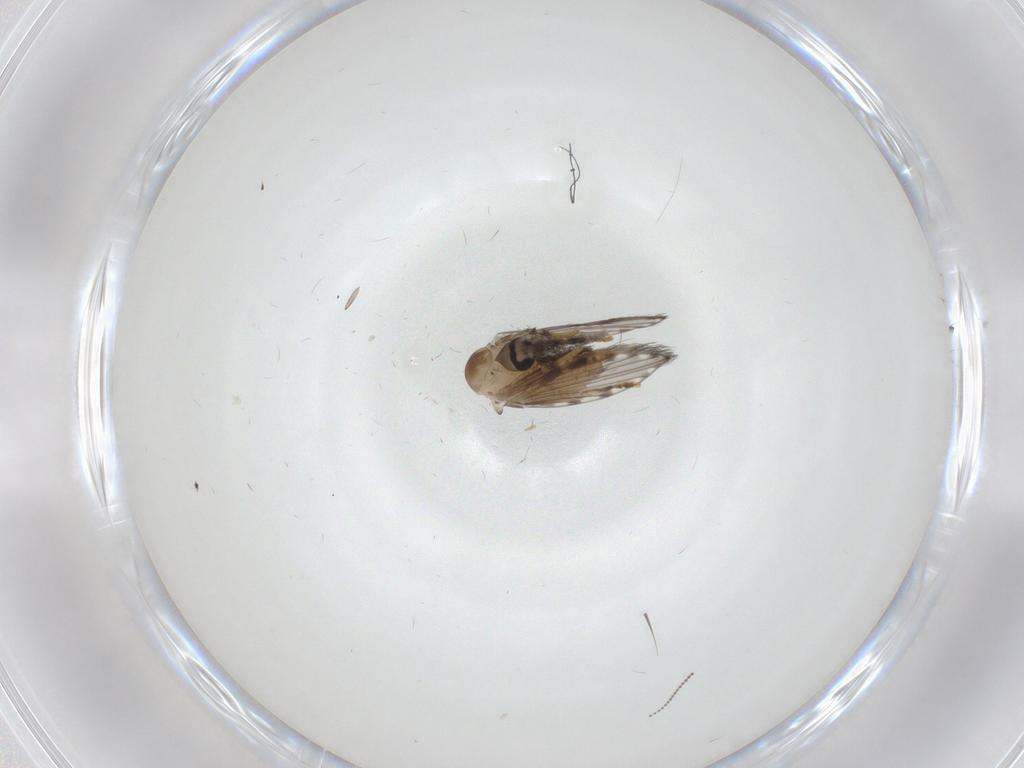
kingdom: Animalia
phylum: Arthropoda
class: Insecta
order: Diptera
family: Psychodidae
